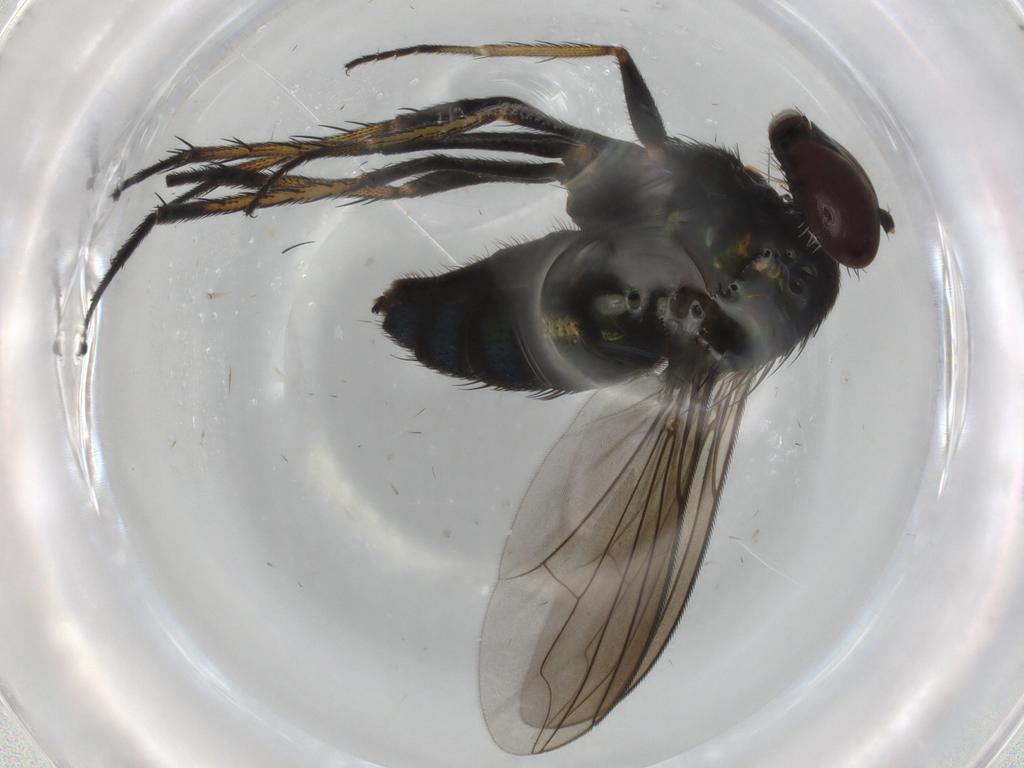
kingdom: Animalia
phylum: Arthropoda
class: Insecta
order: Diptera
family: Dolichopodidae
